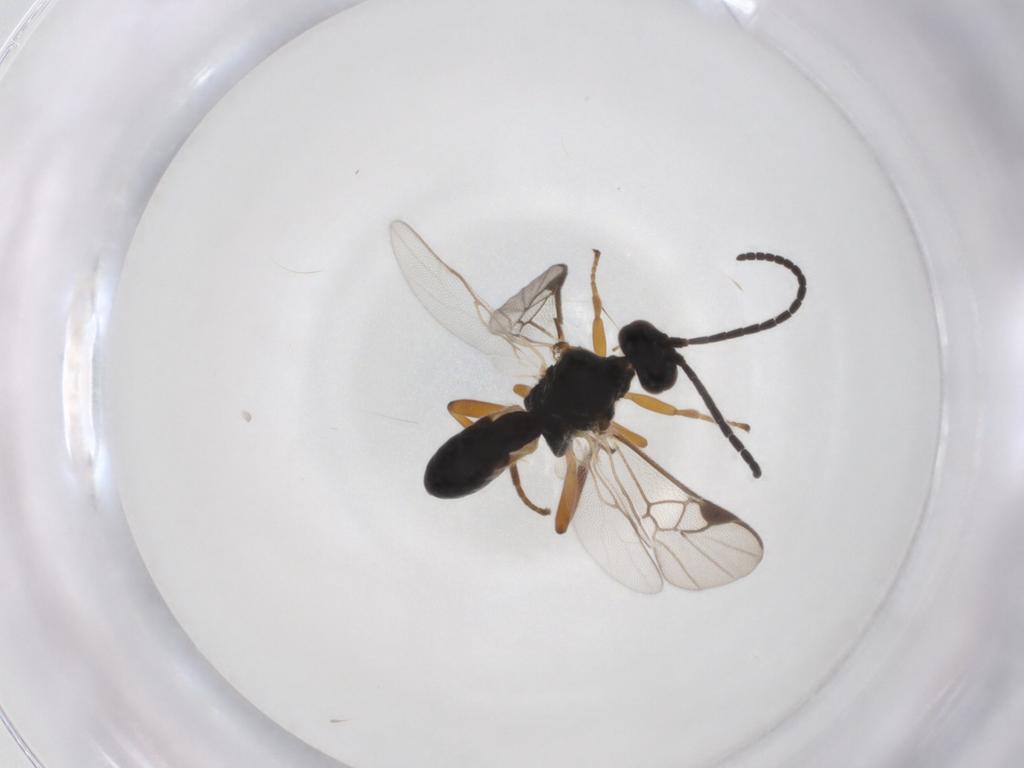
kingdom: Animalia
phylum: Arthropoda
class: Insecta
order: Hymenoptera
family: Braconidae
